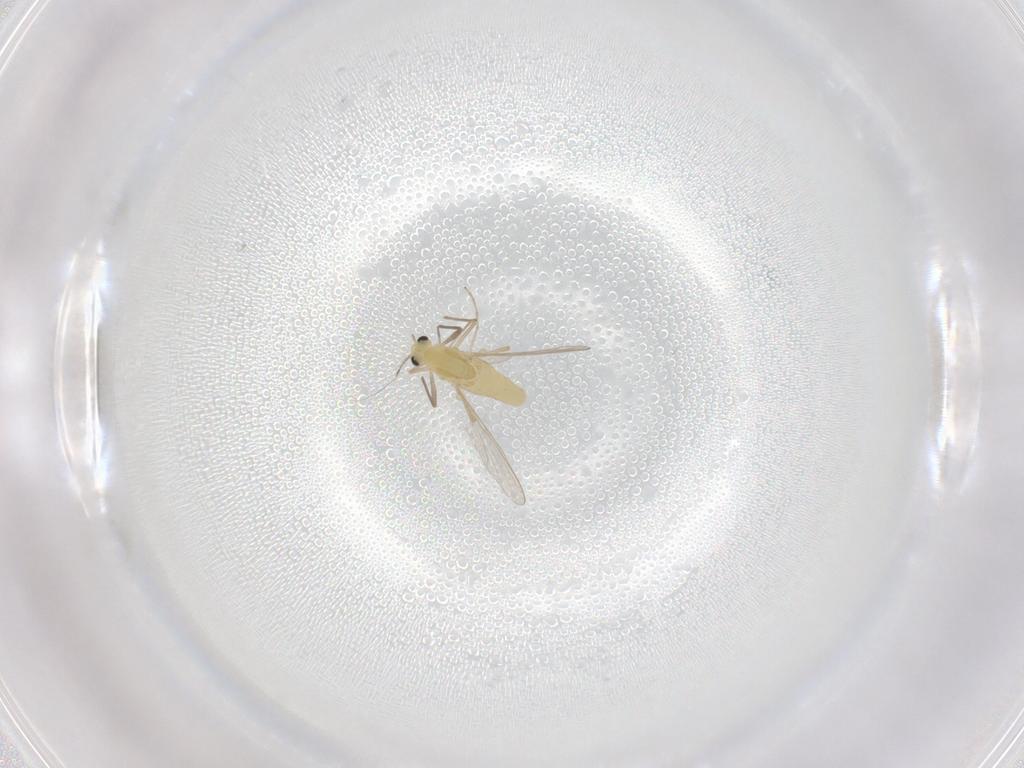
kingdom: Animalia
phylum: Arthropoda
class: Insecta
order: Diptera
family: Chironomidae
